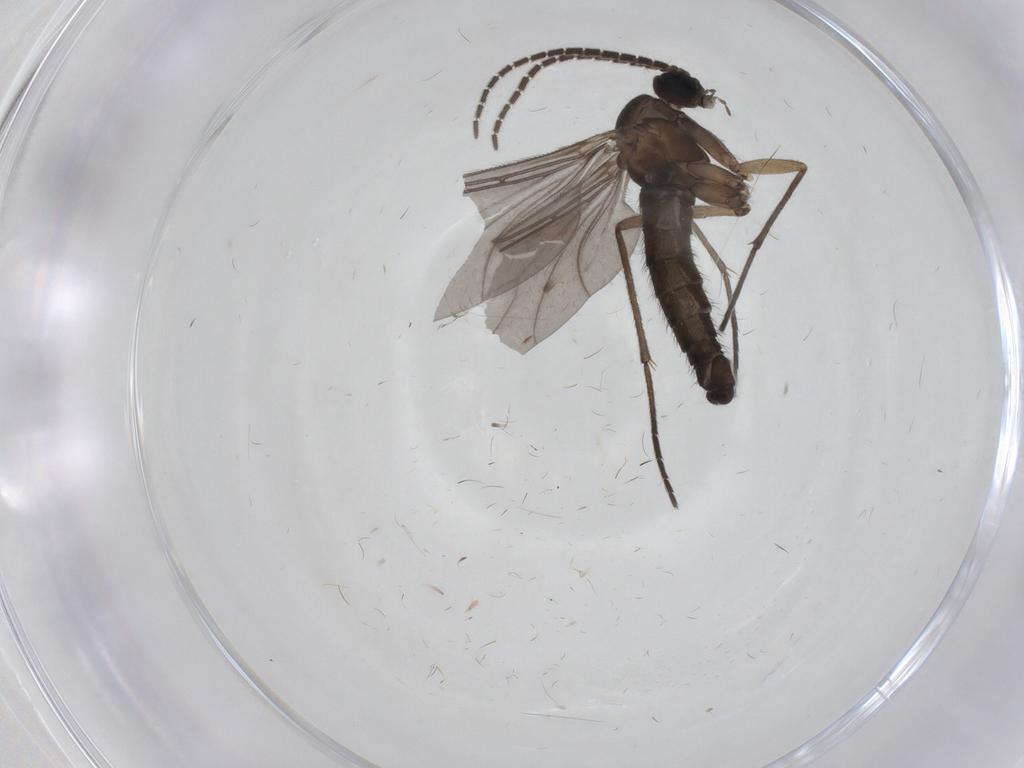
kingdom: Animalia
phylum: Arthropoda
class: Insecta
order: Diptera
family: Sciaridae
